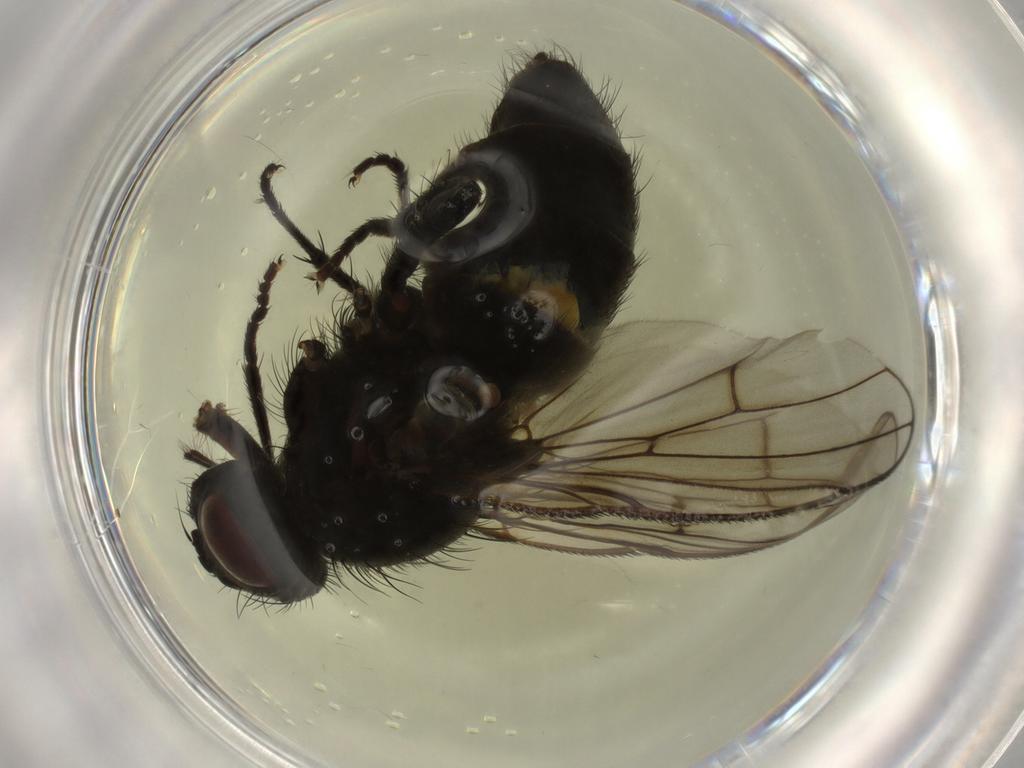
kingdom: Animalia
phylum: Arthropoda
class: Insecta
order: Diptera
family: Muscidae
